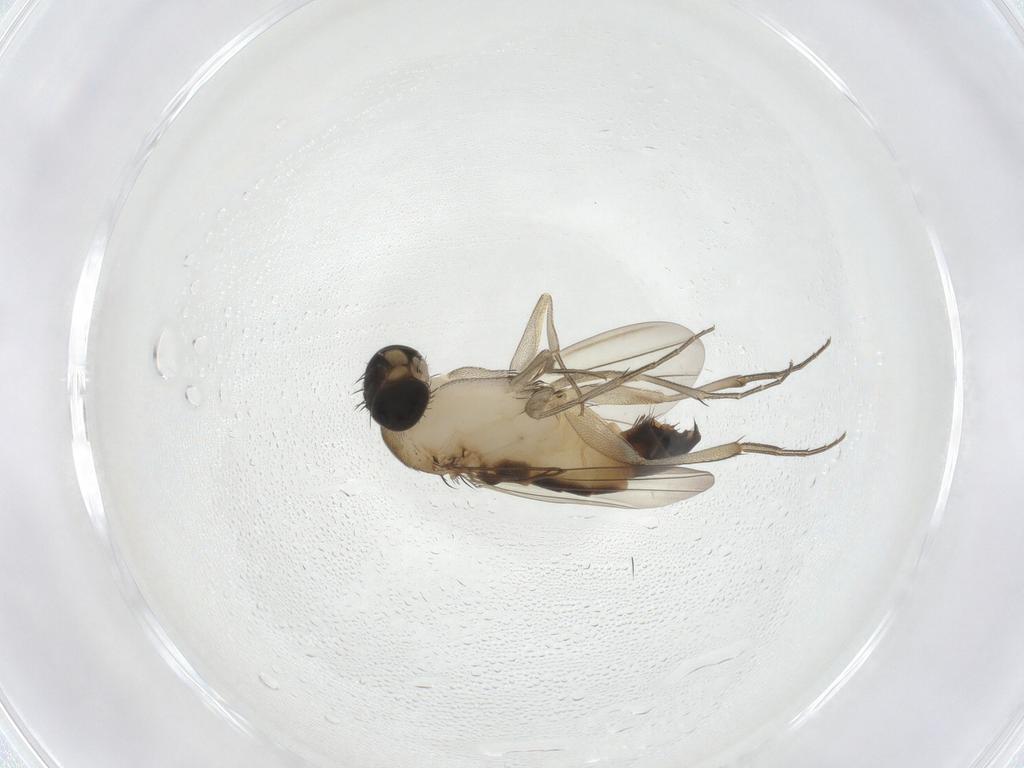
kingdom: Animalia
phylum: Arthropoda
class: Insecta
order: Diptera
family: Phoridae
